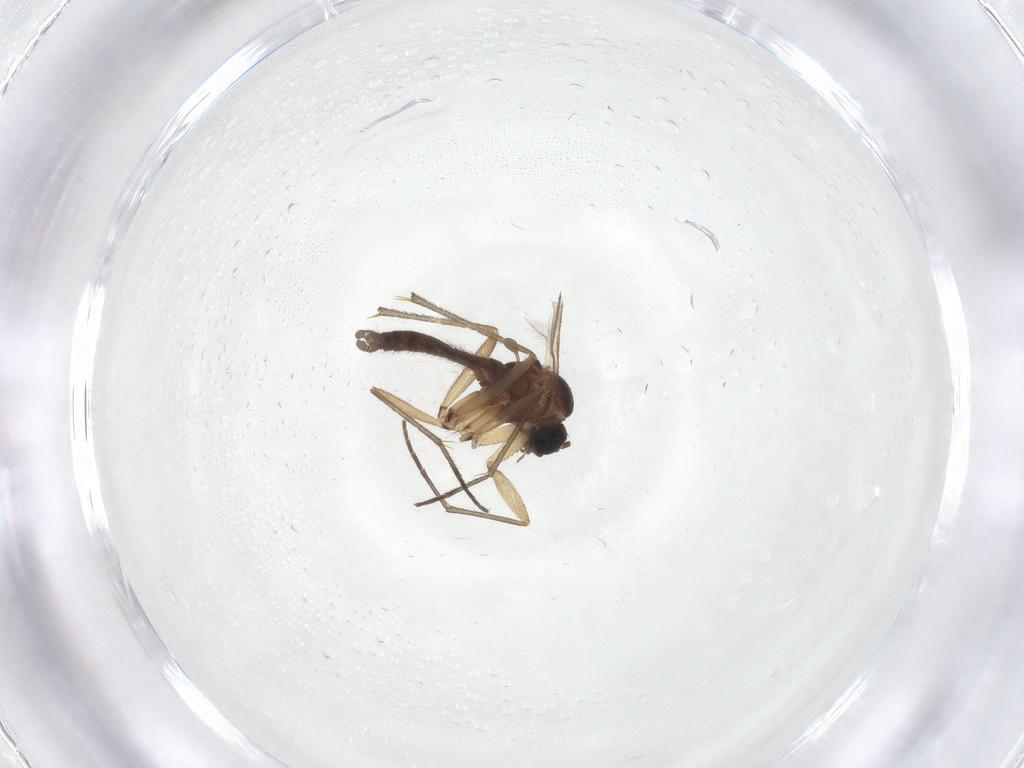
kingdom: Animalia
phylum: Arthropoda
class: Insecta
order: Diptera
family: Sciaridae
